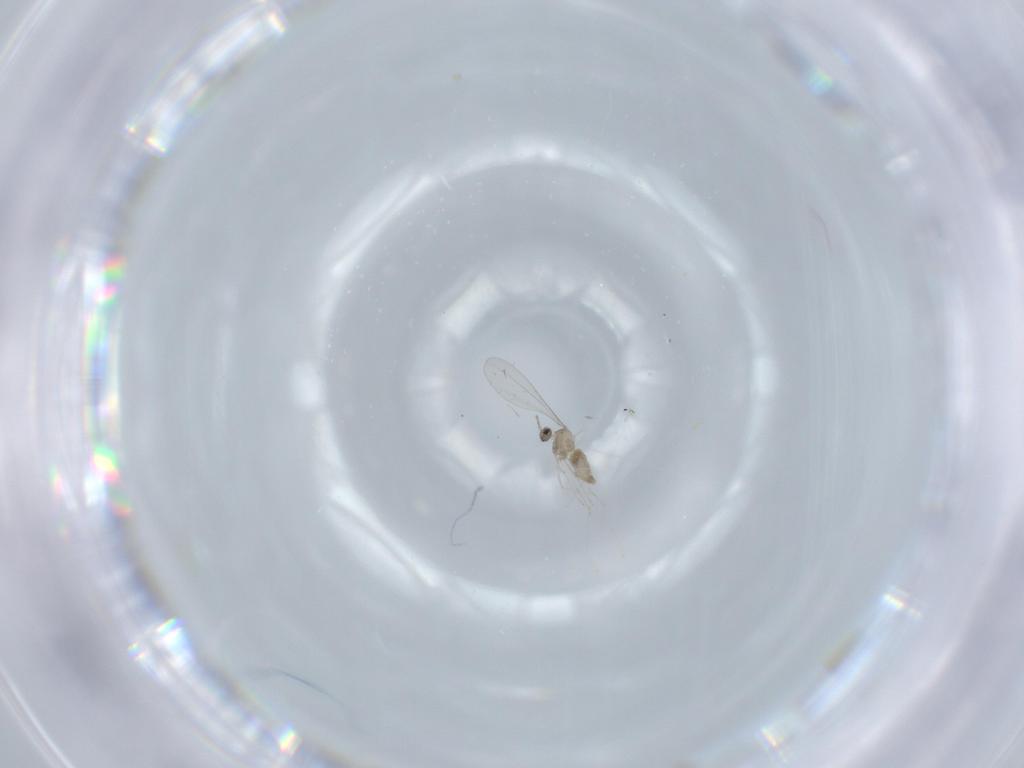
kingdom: Animalia
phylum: Arthropoda
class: Insecta
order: Diptera
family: Cecidomyiidae
